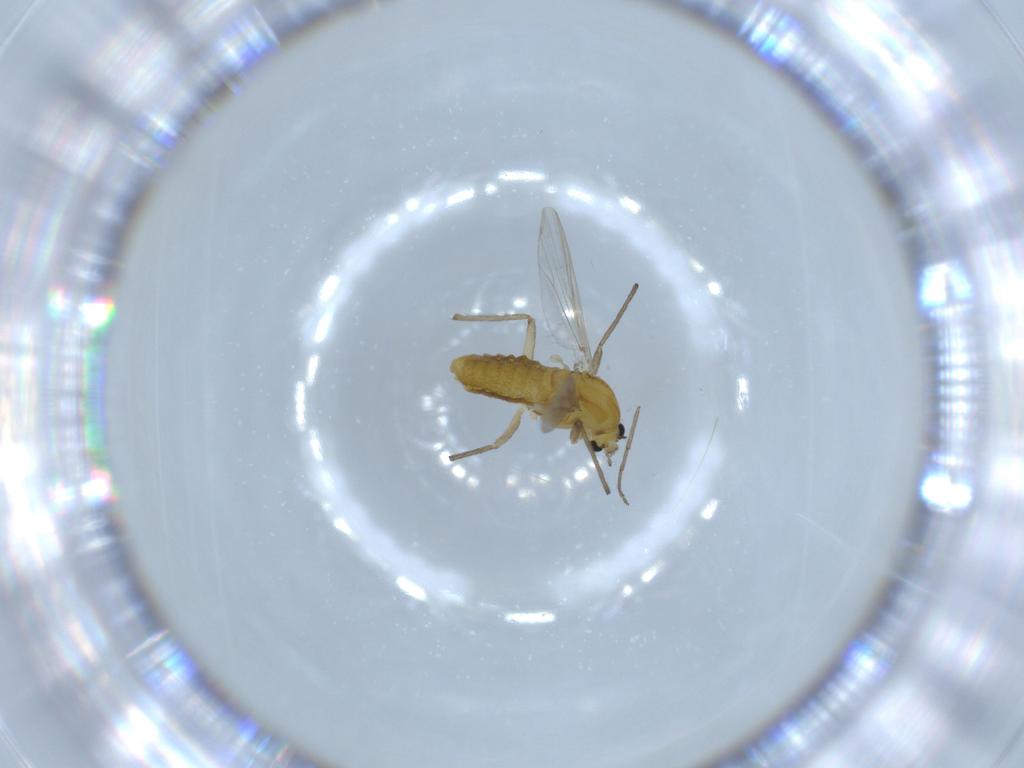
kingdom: Animalia
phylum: Arthropoda
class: Insecta
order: Diptera
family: Chironomidae
